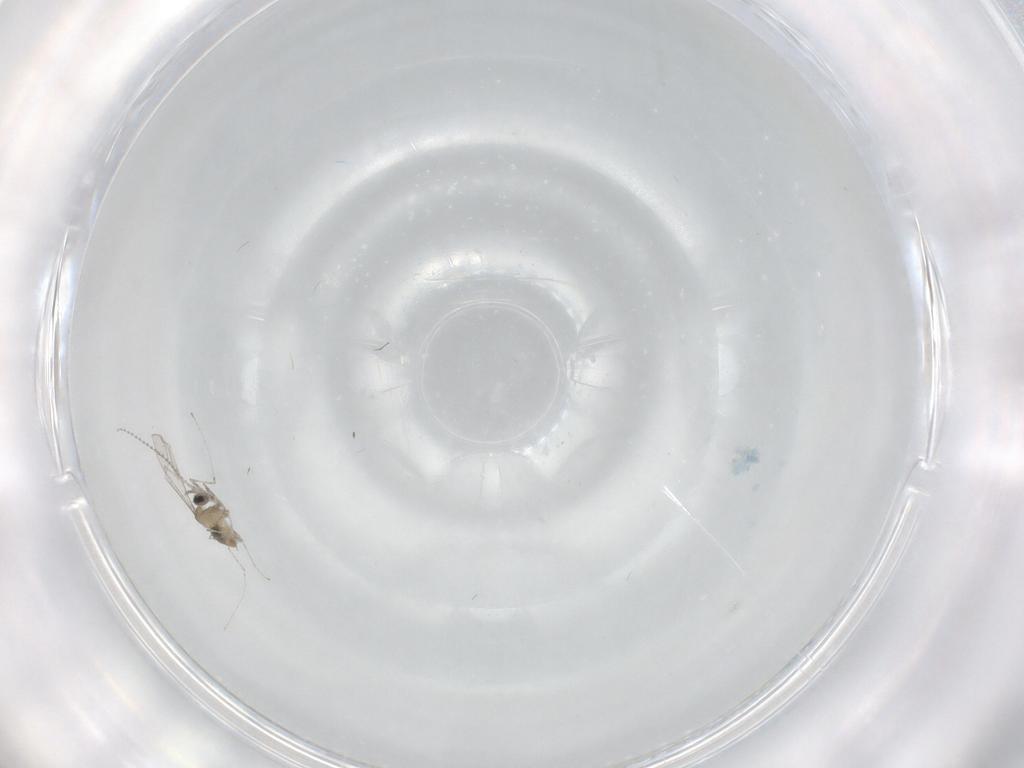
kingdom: Animalia
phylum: Arthropoda
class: Insecta
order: Diptera
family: Cecidomyiidae
